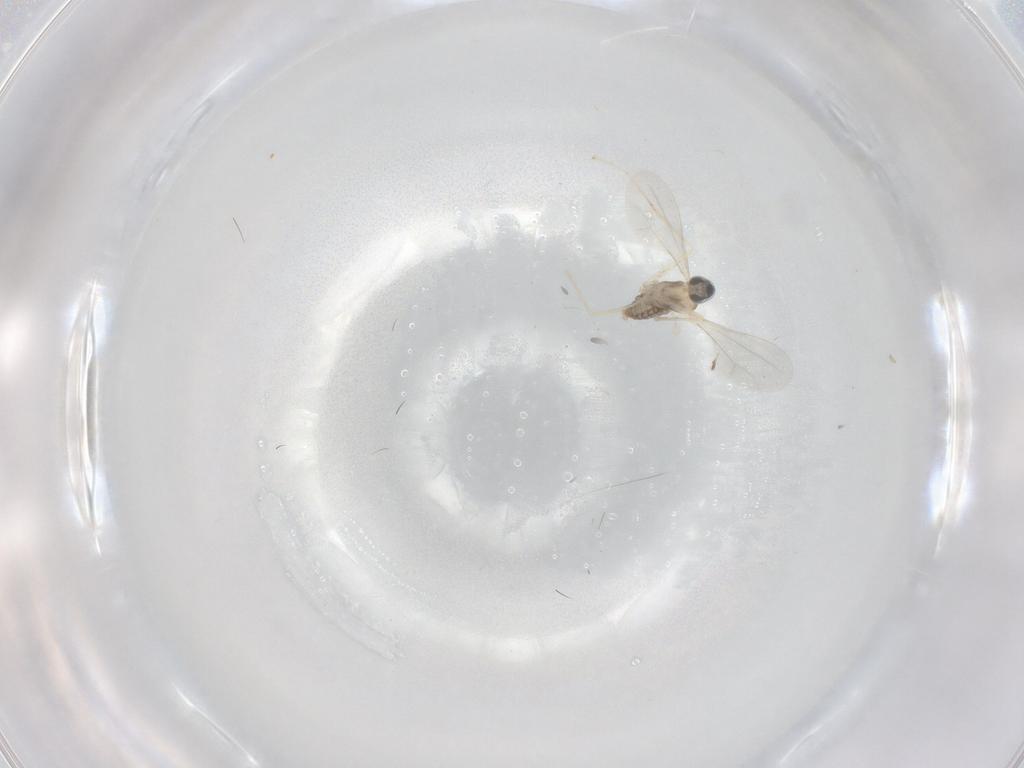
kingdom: Animalia
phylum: Arthropoda
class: Insecta
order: Diptera
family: Cecidomyiidae
